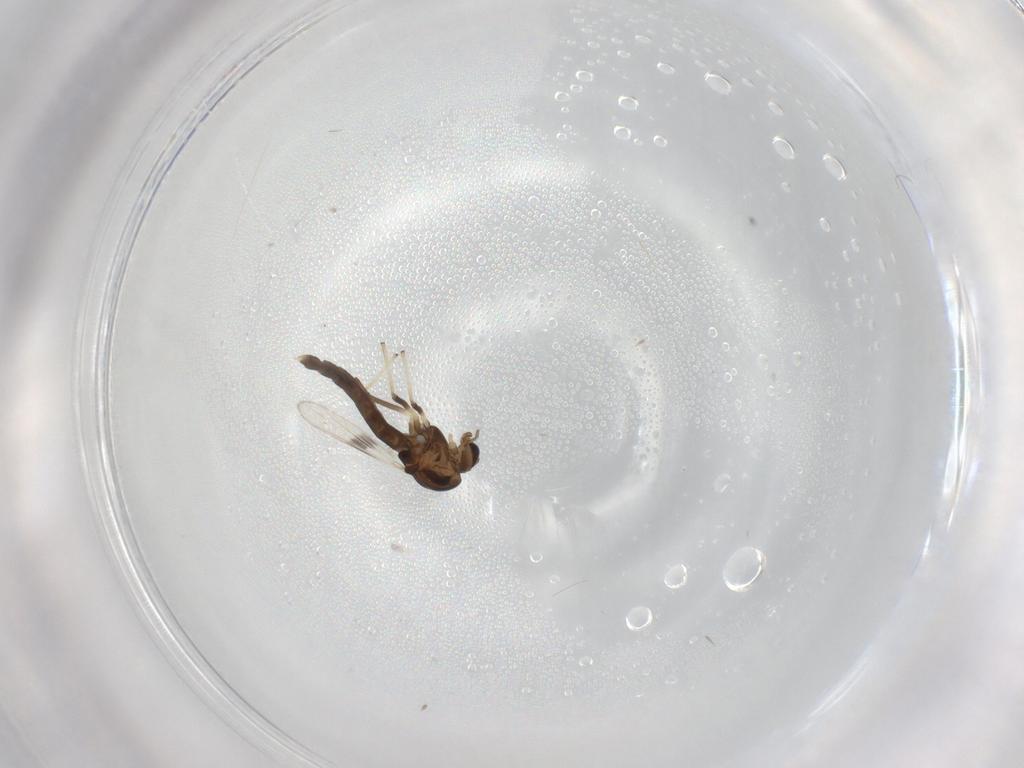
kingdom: Animalia
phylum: Arthropoda
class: Insecta
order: Diptera
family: Chironomidae
